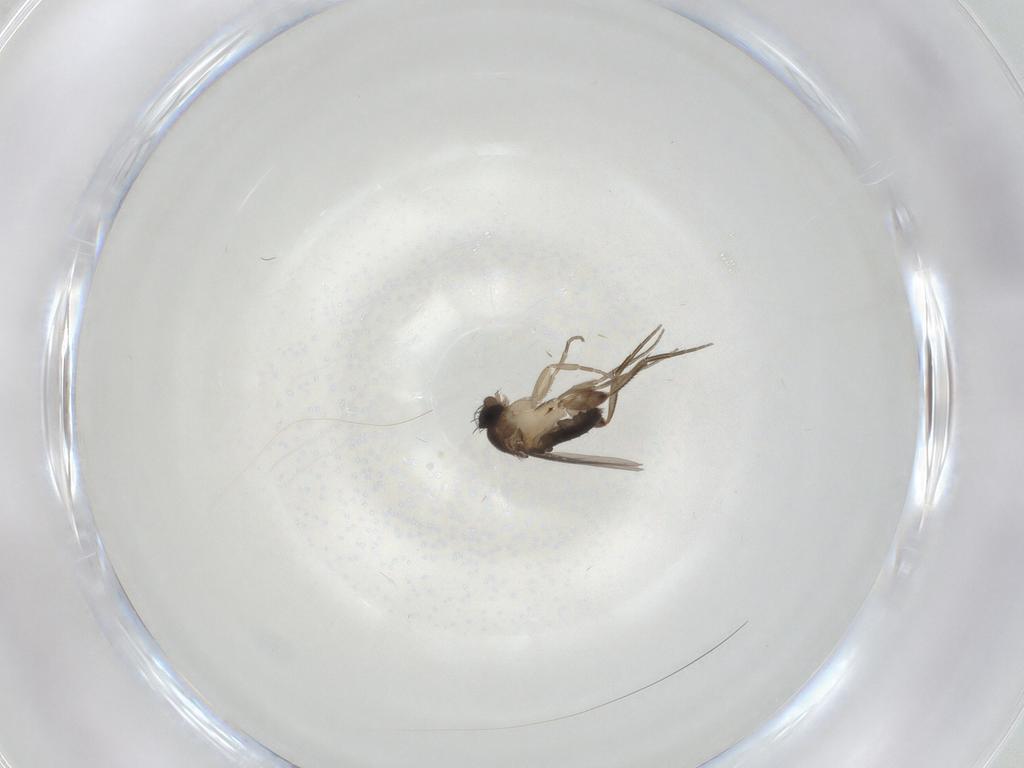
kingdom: Animalia
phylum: Arthropoda
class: Insecta
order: Diptera
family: Phoridae
